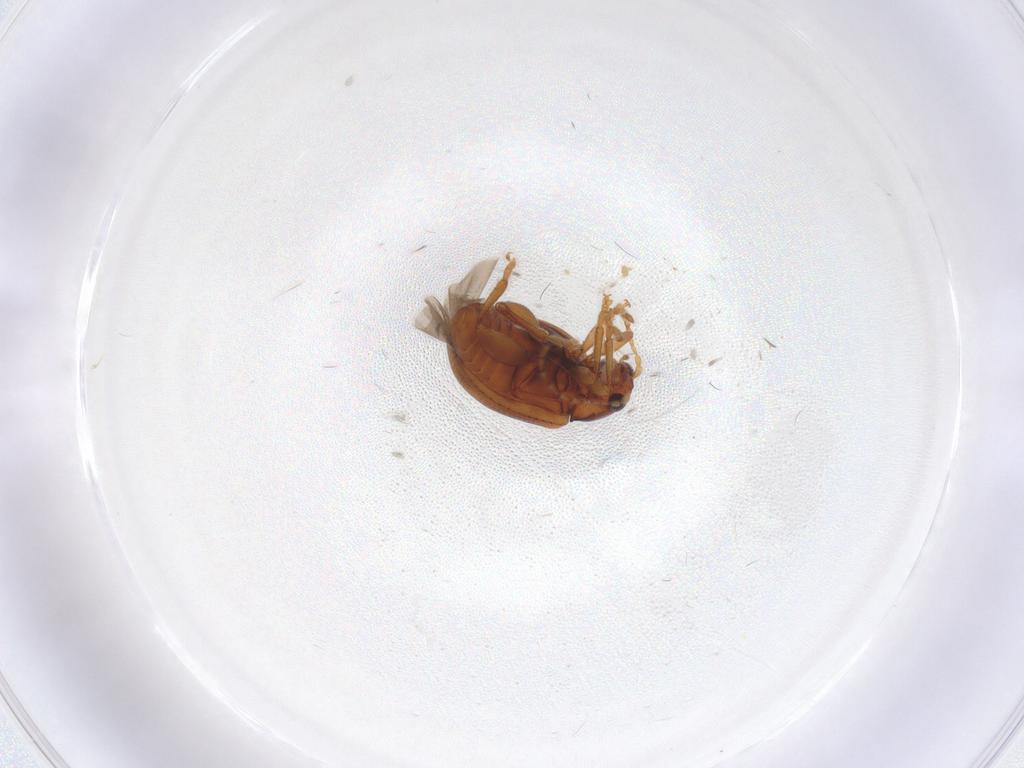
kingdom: Animalia
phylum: Arthropoda
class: Insecta
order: Coleoptera
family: Chrysomelidae
